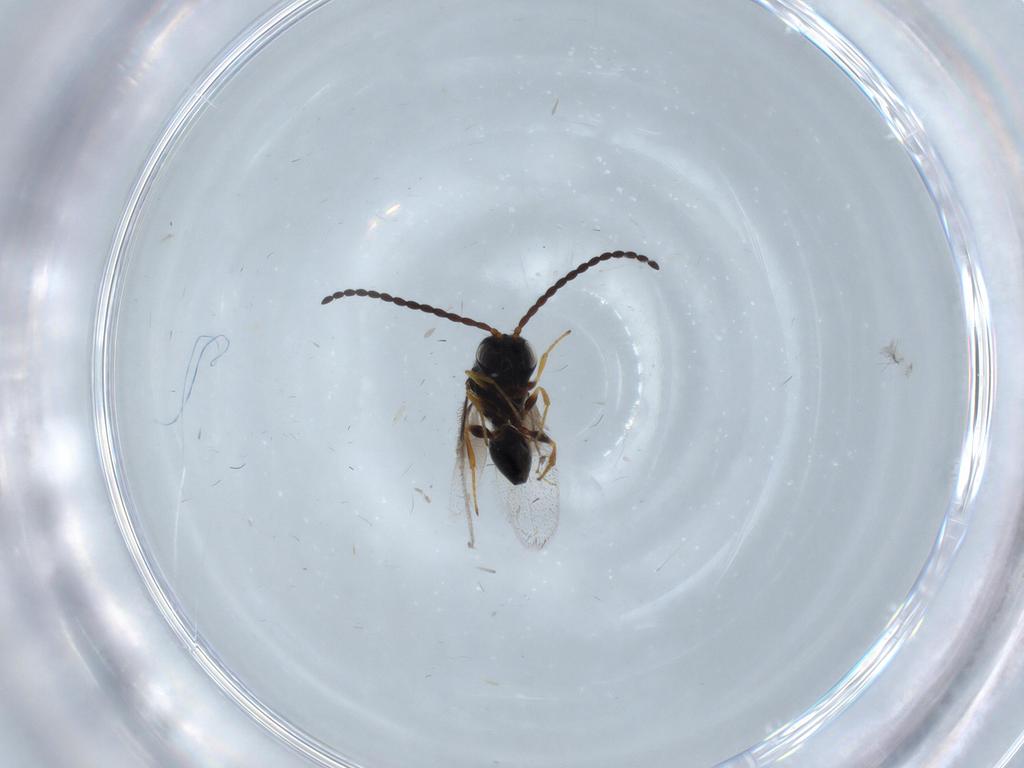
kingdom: Animalia
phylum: Arthropoda
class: Insecta
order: Hymenoptera
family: Figitidae
